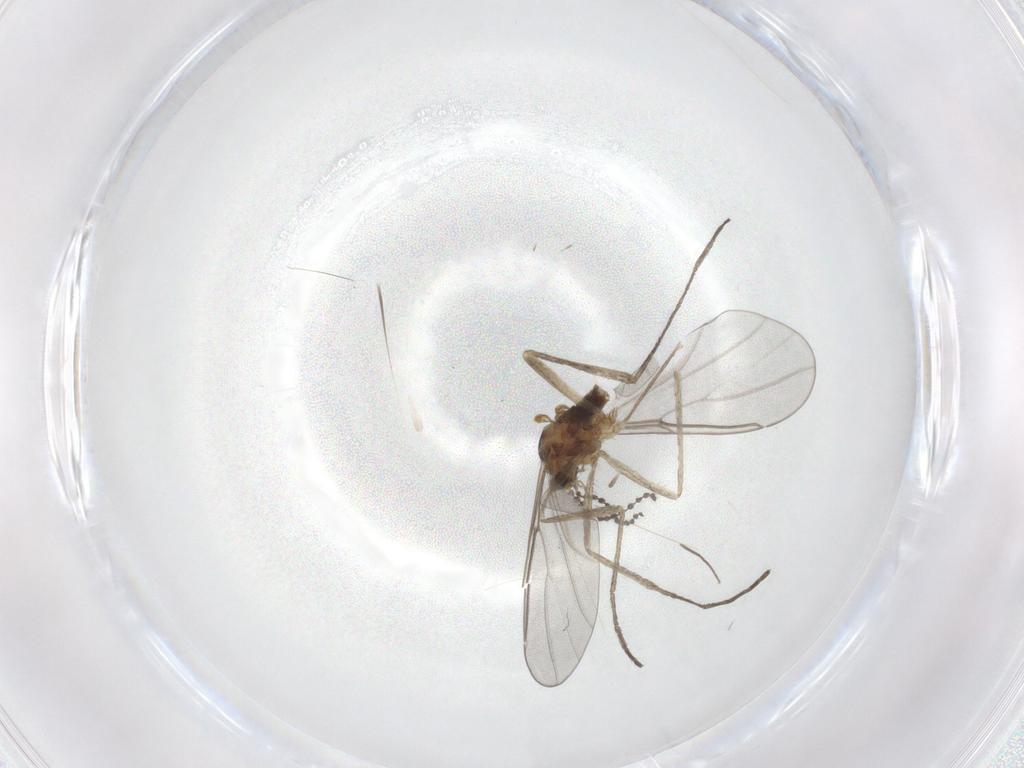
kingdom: Animalia
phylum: Arthropoda
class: Insecta
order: Diptera
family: Cecidomyiidae
